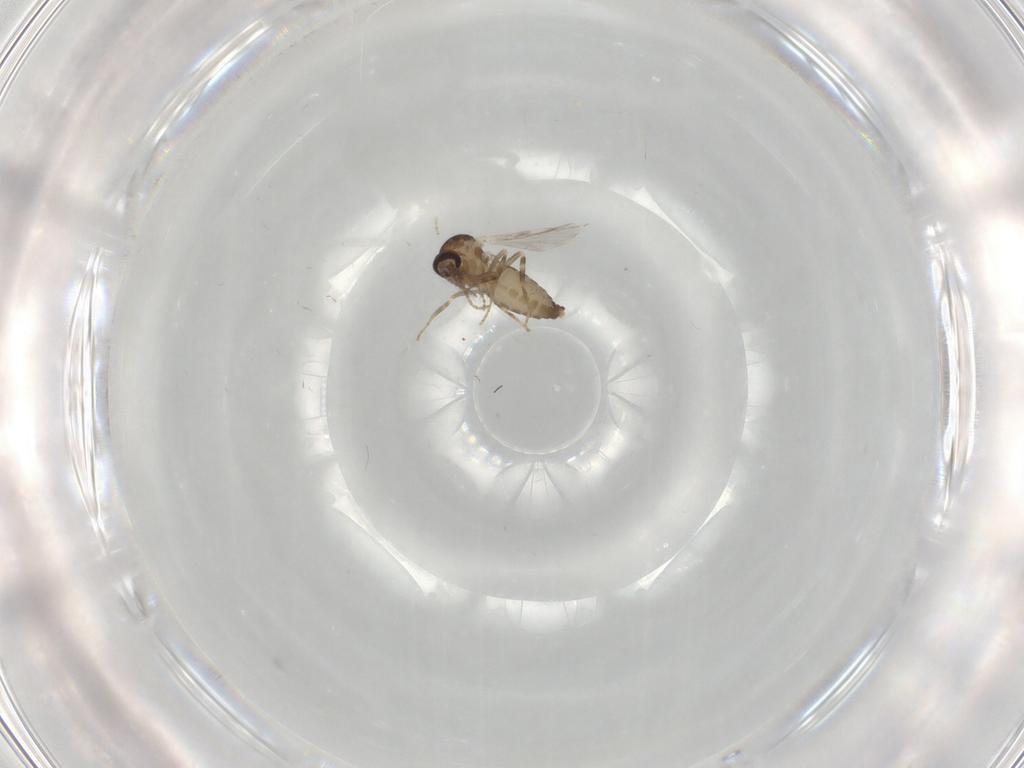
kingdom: Animalia
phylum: Arthropoda
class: Insecta
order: Diptera
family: Ceratopogonidae
